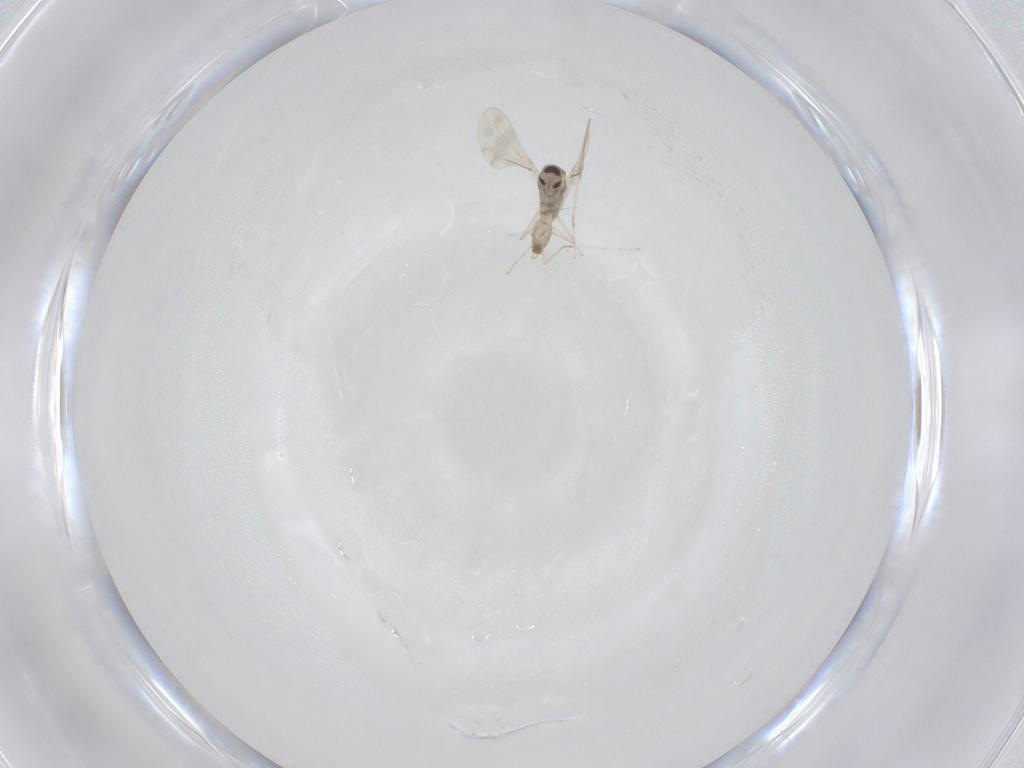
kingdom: Animalia
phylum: Arthropoda
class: Insecta
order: Diptera
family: Cecidomyiidae
